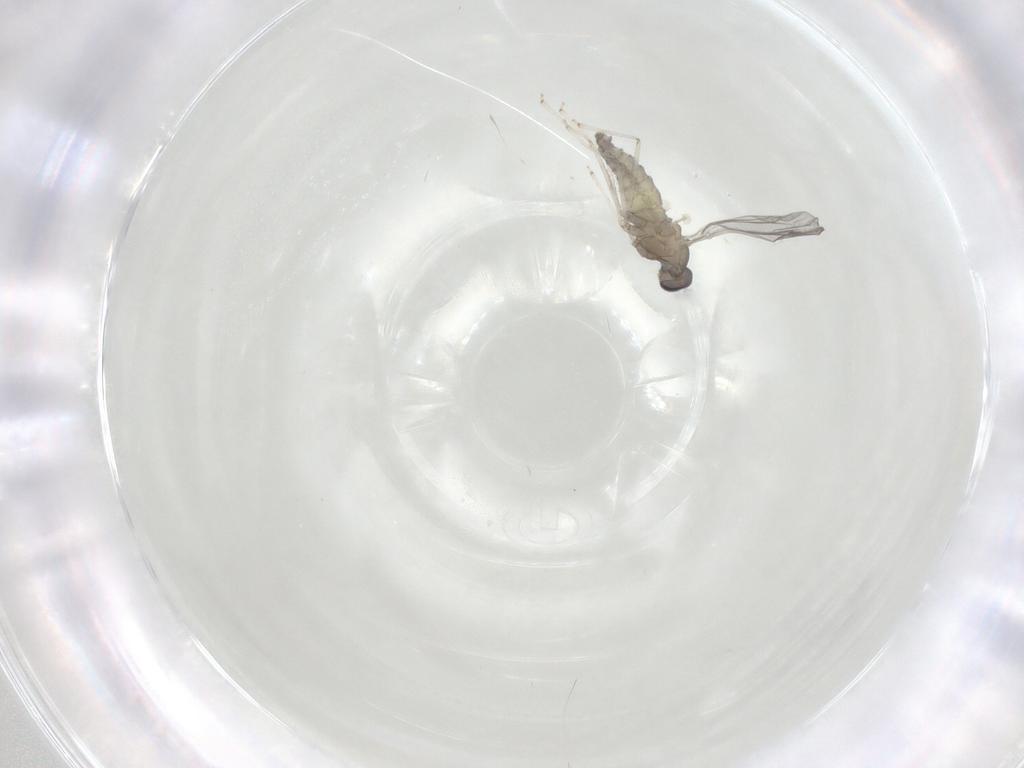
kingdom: Animalia
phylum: Arthropoda
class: Insecta
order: Diptera
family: Cecidomyiidae
